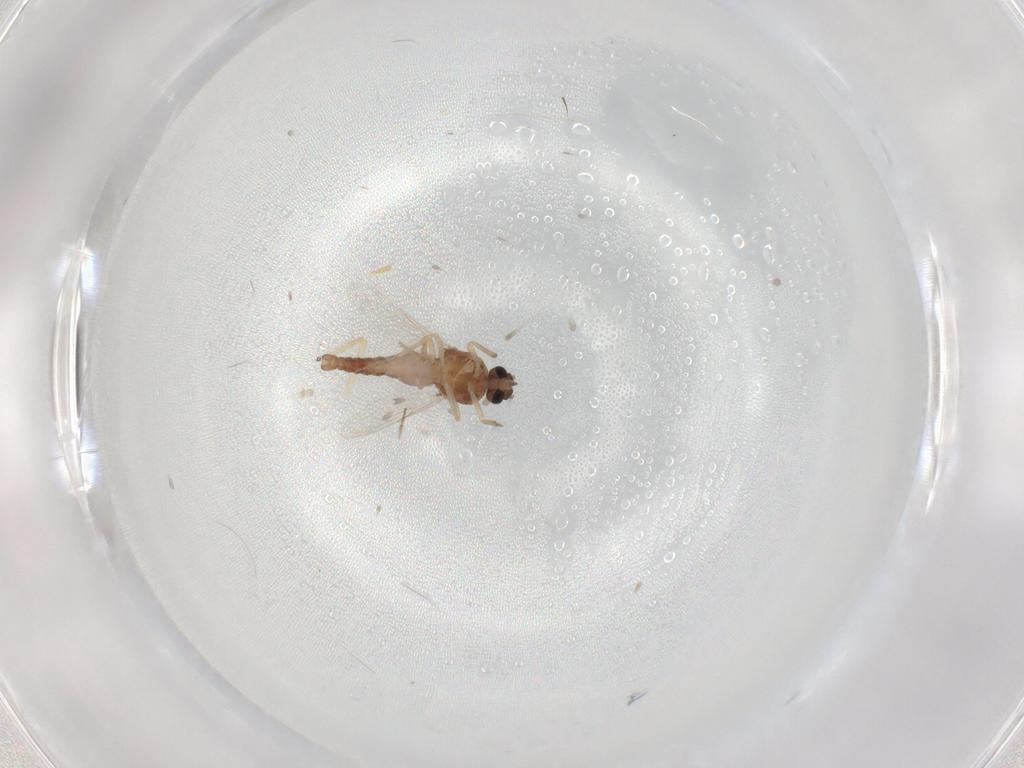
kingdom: Animalia
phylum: Arthropoda
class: Insecta
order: Diptera
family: Ceratopogonidae
